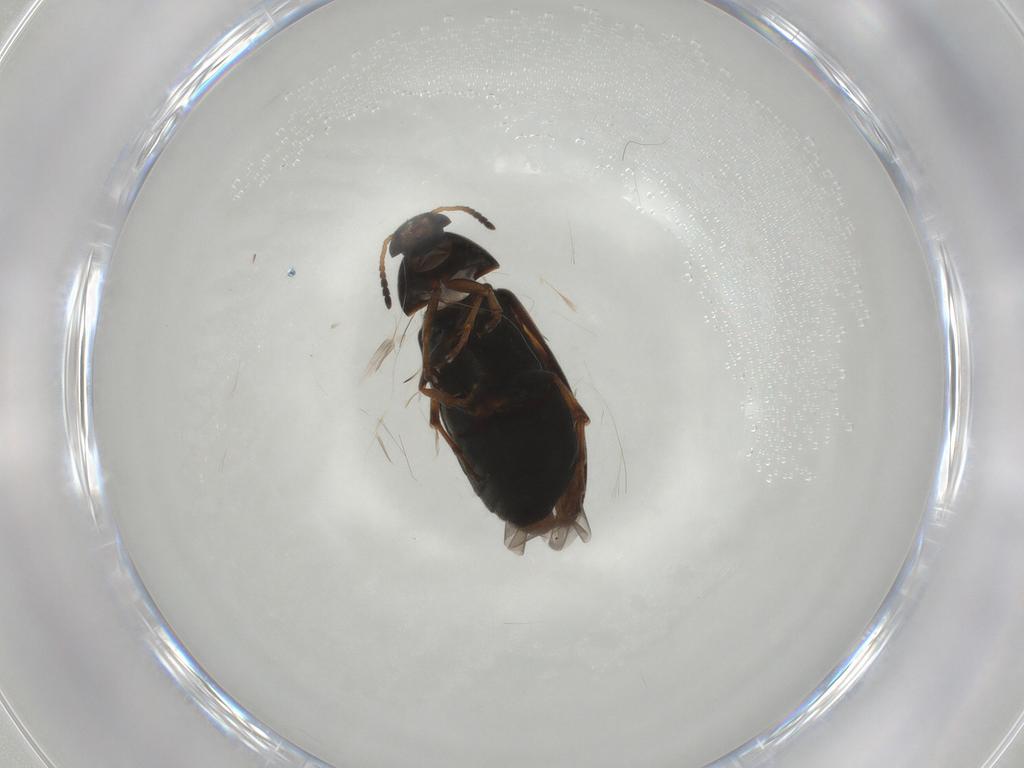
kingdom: Animalia
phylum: Arthropoda
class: Insecta
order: Coleoptera
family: Scraptiidae
